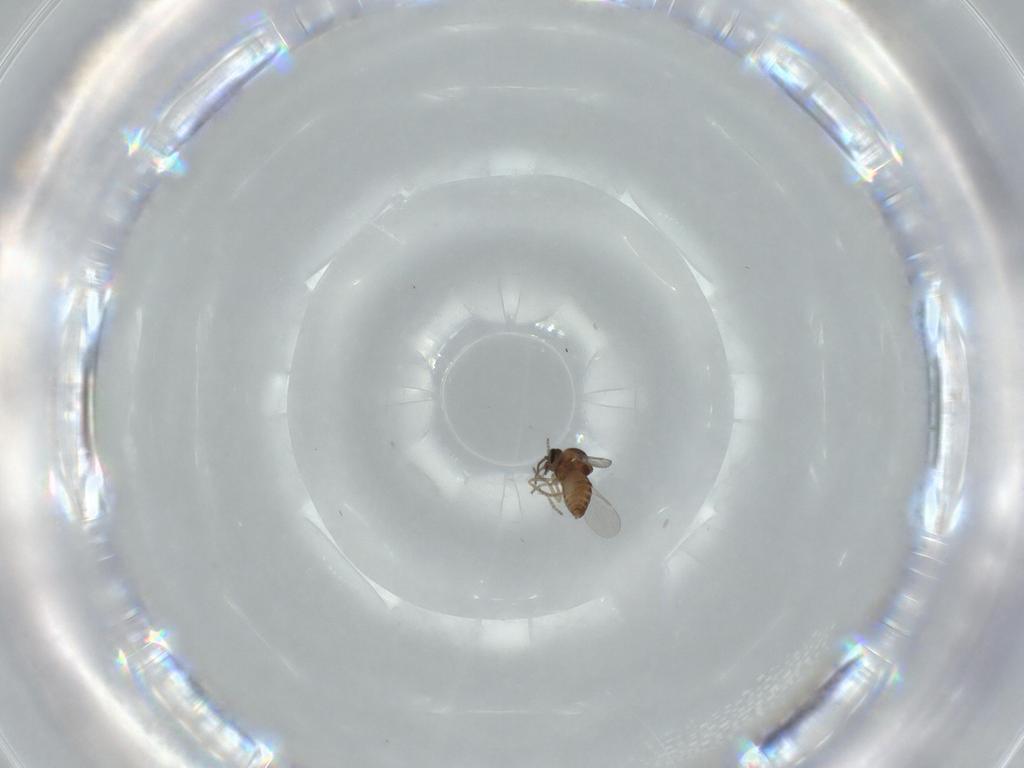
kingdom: Animalia
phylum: Arthropoda
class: Insecta
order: Diptera
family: Ceratopogonidae
